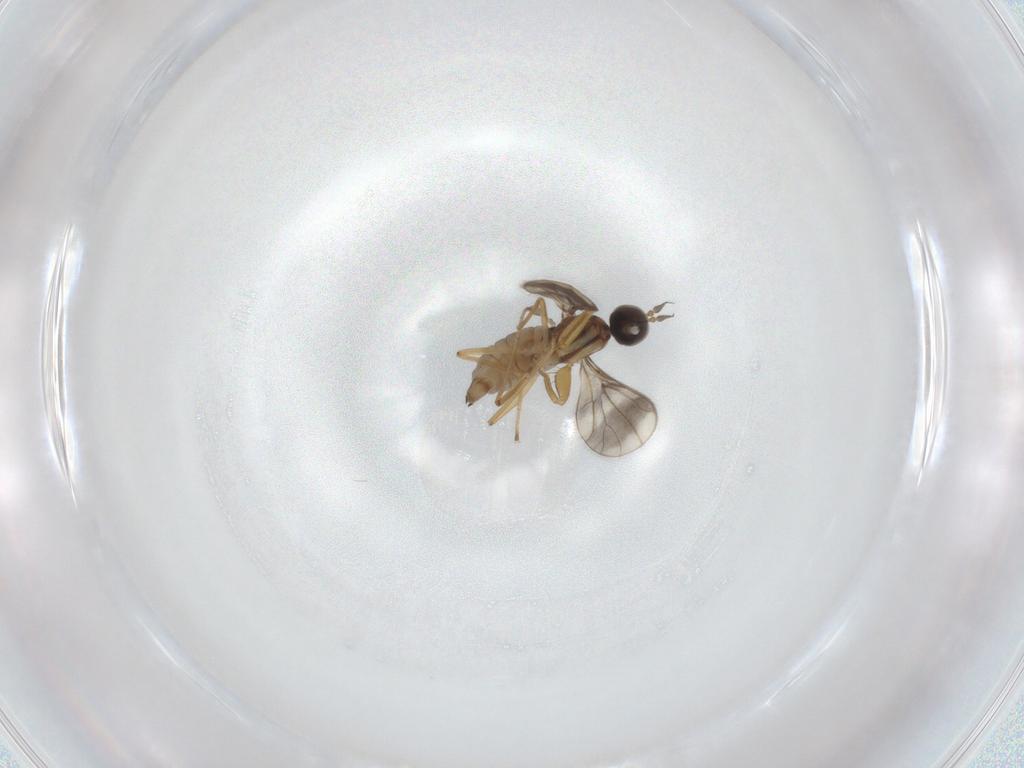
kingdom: Animalia
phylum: Arthropoda
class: Insecta
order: Diptera
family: Empididae
